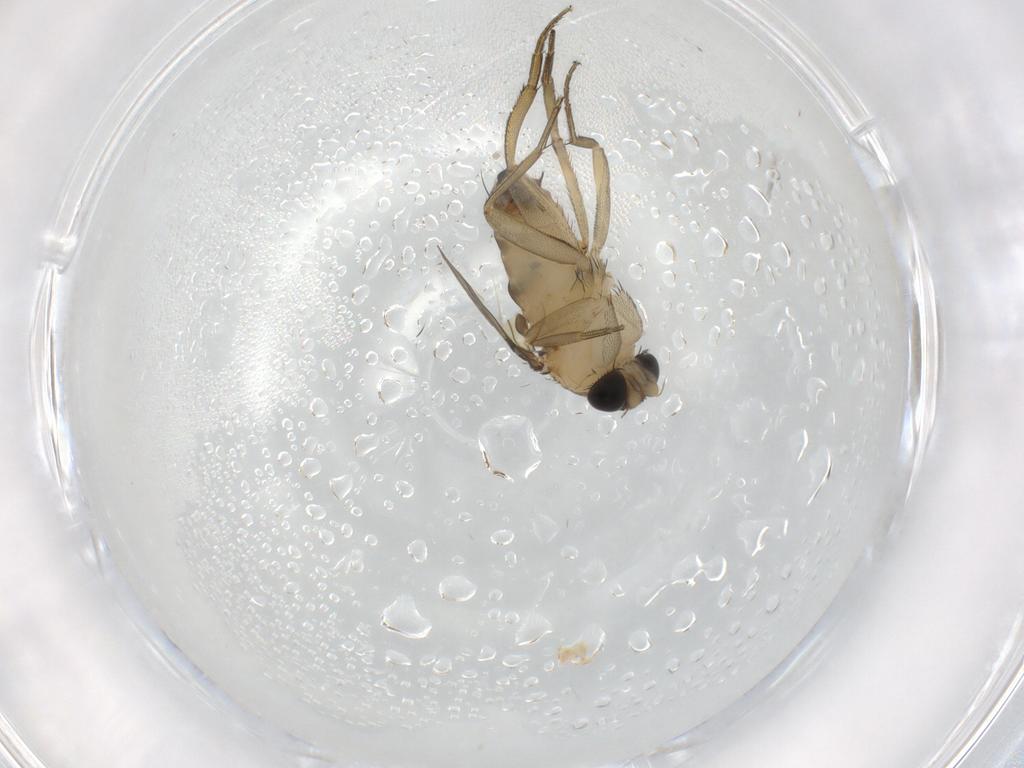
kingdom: Animalia
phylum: Arthropoda
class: Insecta
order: Diptera
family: Phoridae
